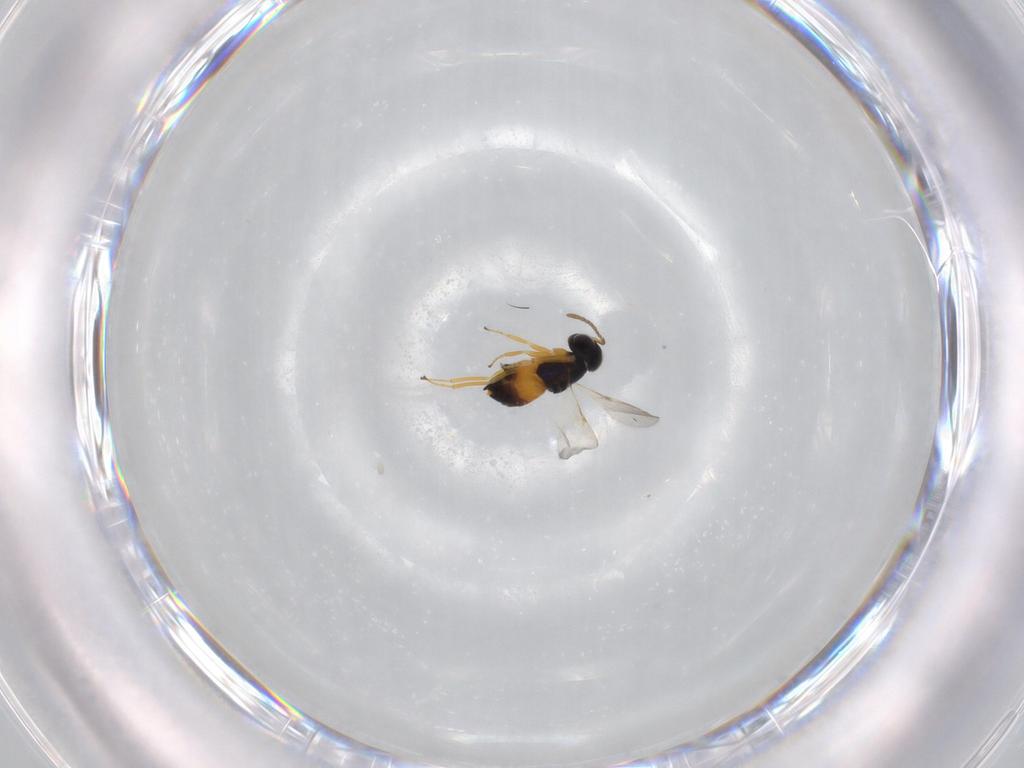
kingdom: Animalia
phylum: Arthropoda
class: Insecta
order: Hymenoptera
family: Encyrtidae
